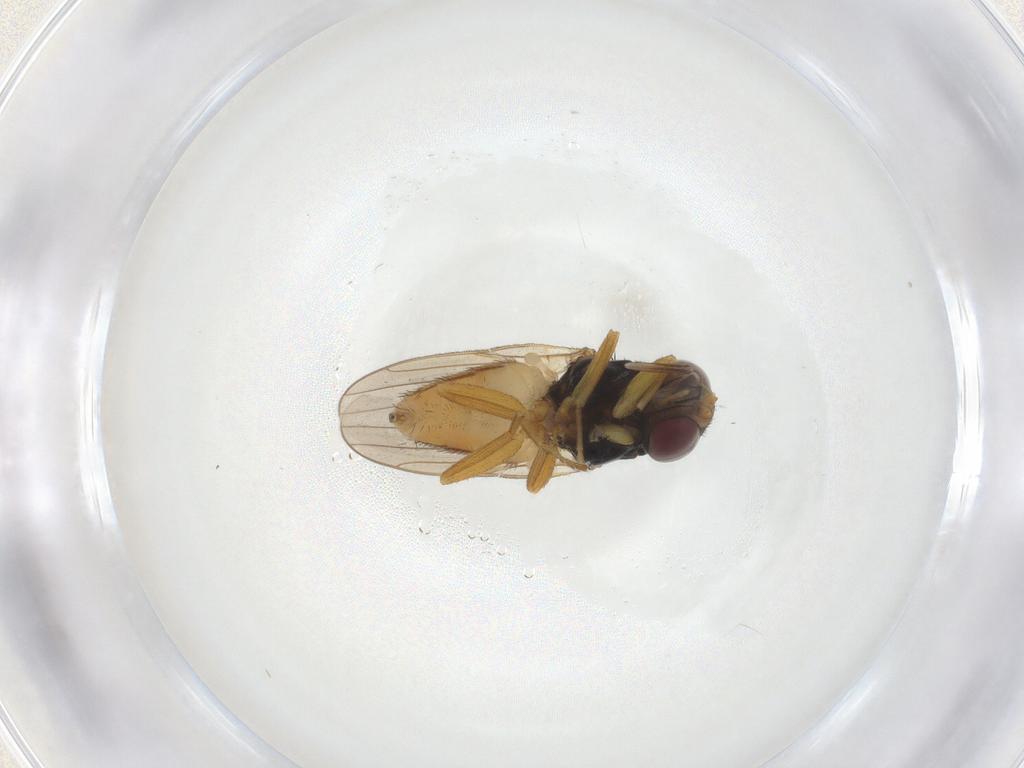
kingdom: Animalia
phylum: Arthropoda
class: Insecta
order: Diptera
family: Chloropidae
